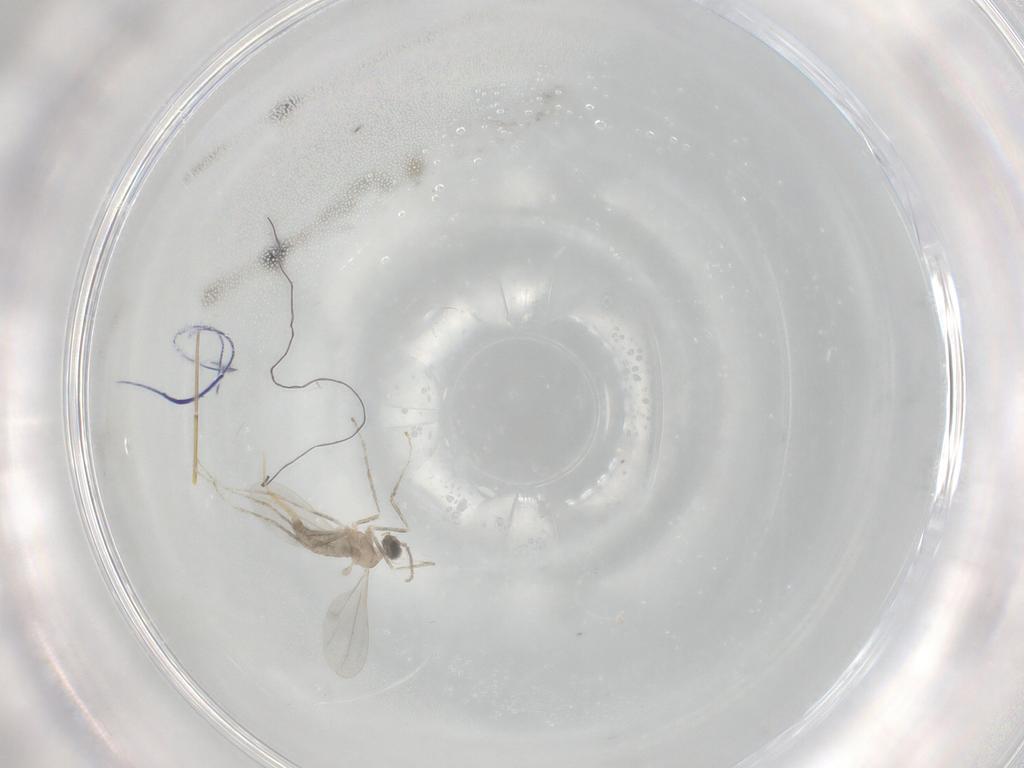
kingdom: Animalia
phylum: Arthropoda
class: Insecta
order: Diptera
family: Cecidomyiidae
